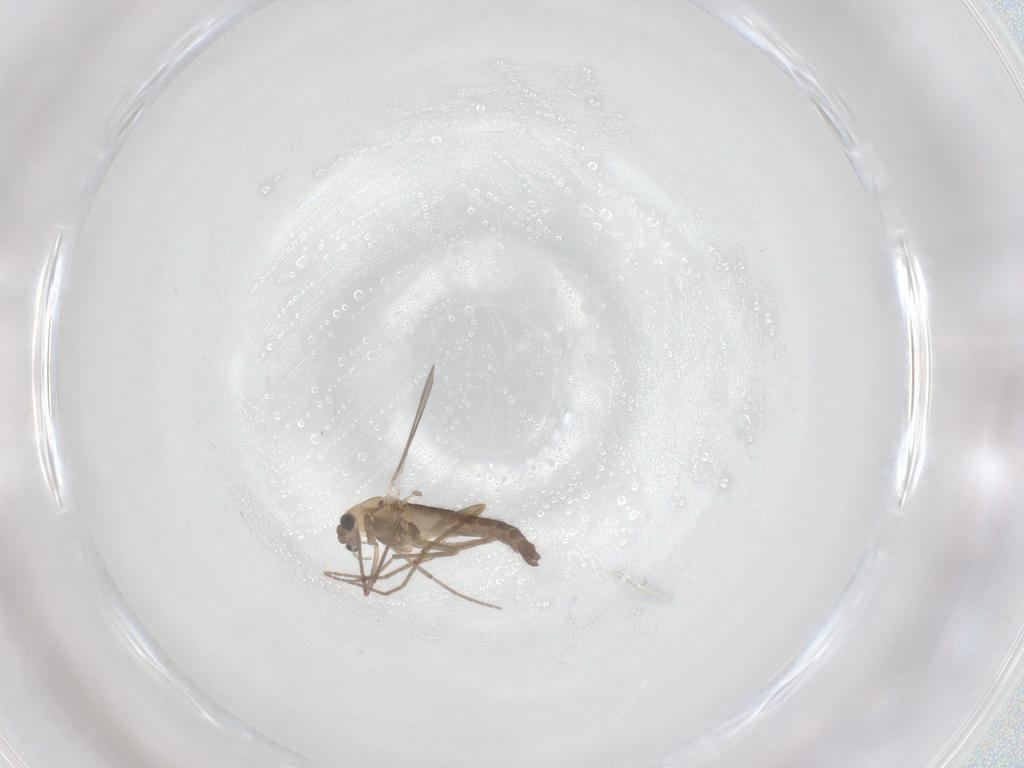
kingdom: Animalia
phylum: Arthropoda
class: Insecta
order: Diptera
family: Chironomidae
